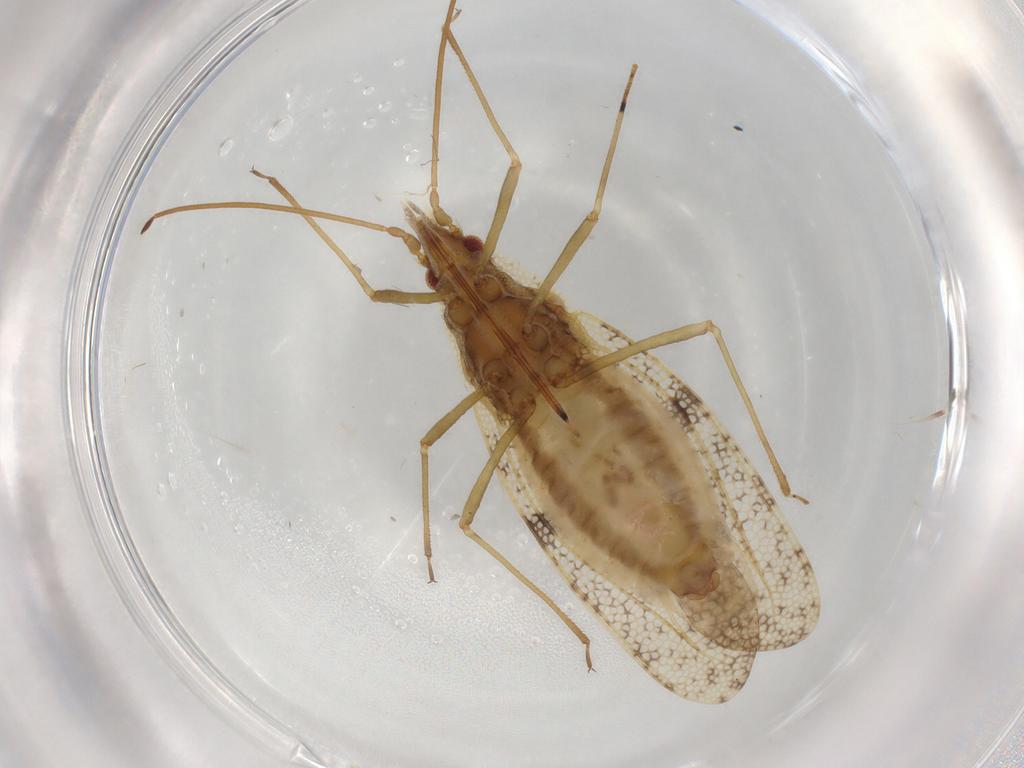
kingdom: Animalia
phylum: Arthropoda
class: Insecta
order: Hemiptera
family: Tingidae
